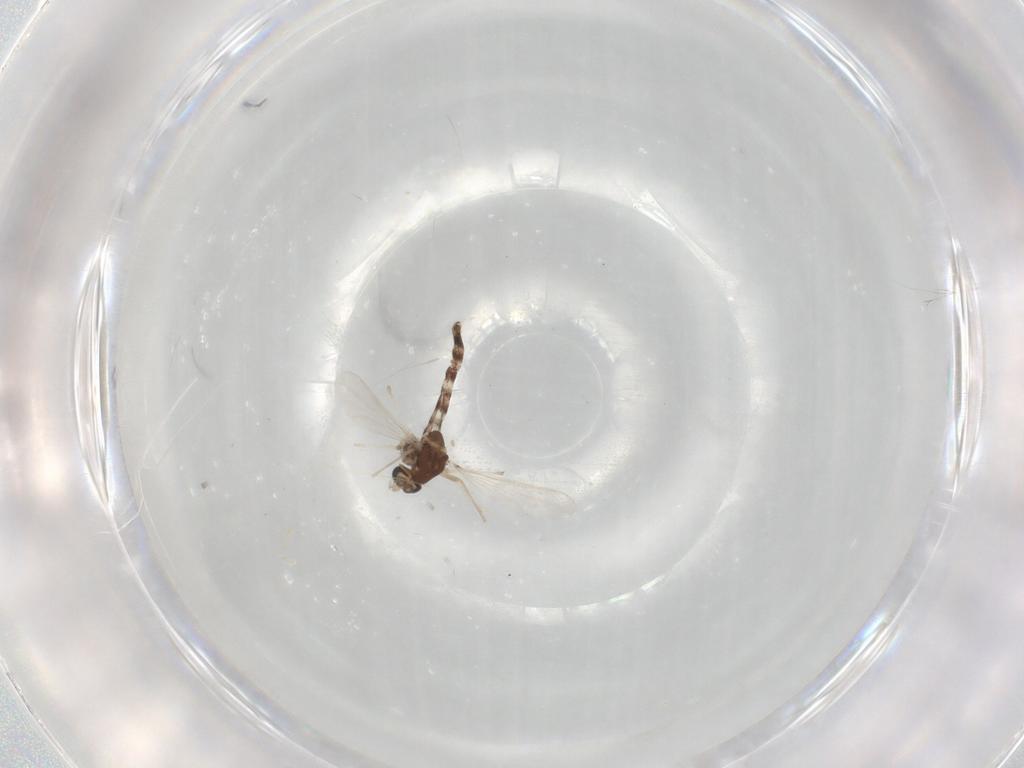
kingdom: Animalia
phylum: Arthropoda
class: Insecta
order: Diptera
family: Chironomidae
